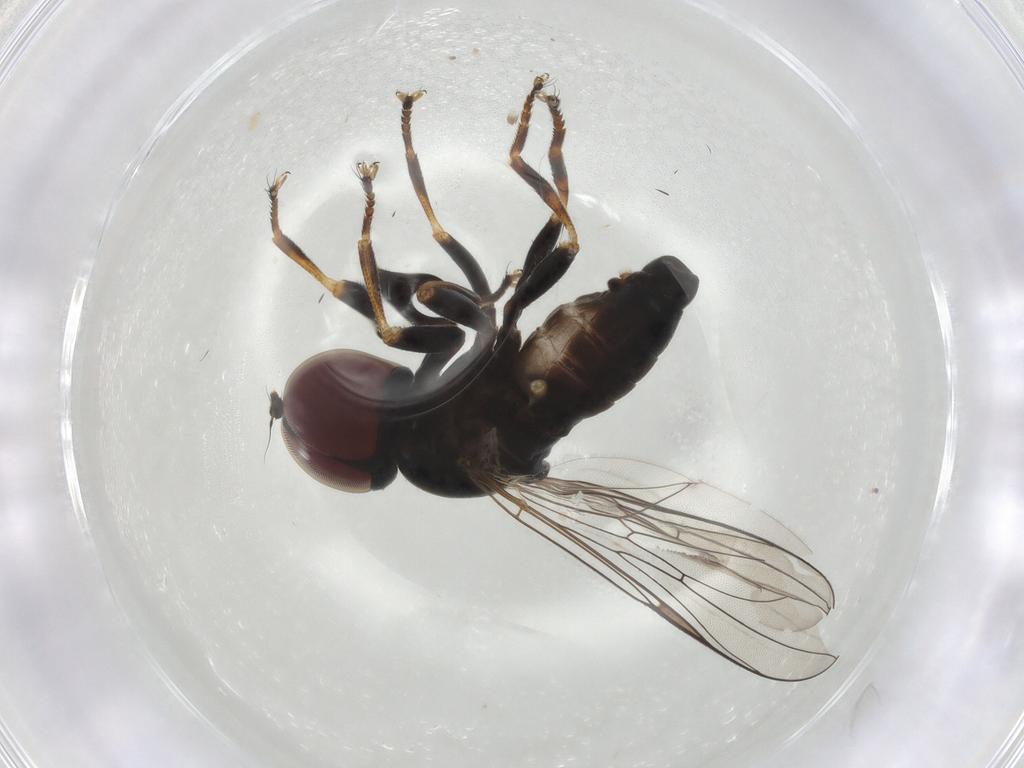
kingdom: Animalia
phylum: Arthropoda
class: Insecta
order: Diptera
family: Pipunculidae
